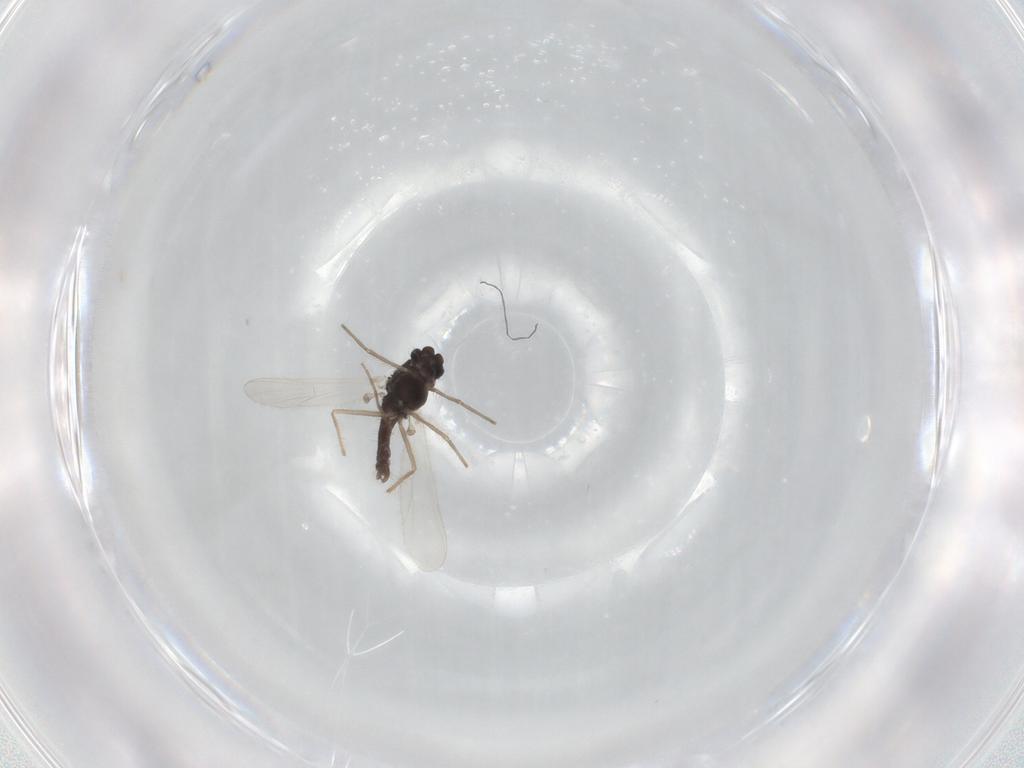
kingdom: Animalia
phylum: Arthropoda
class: Insecta
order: Diptera
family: Chironomidae
